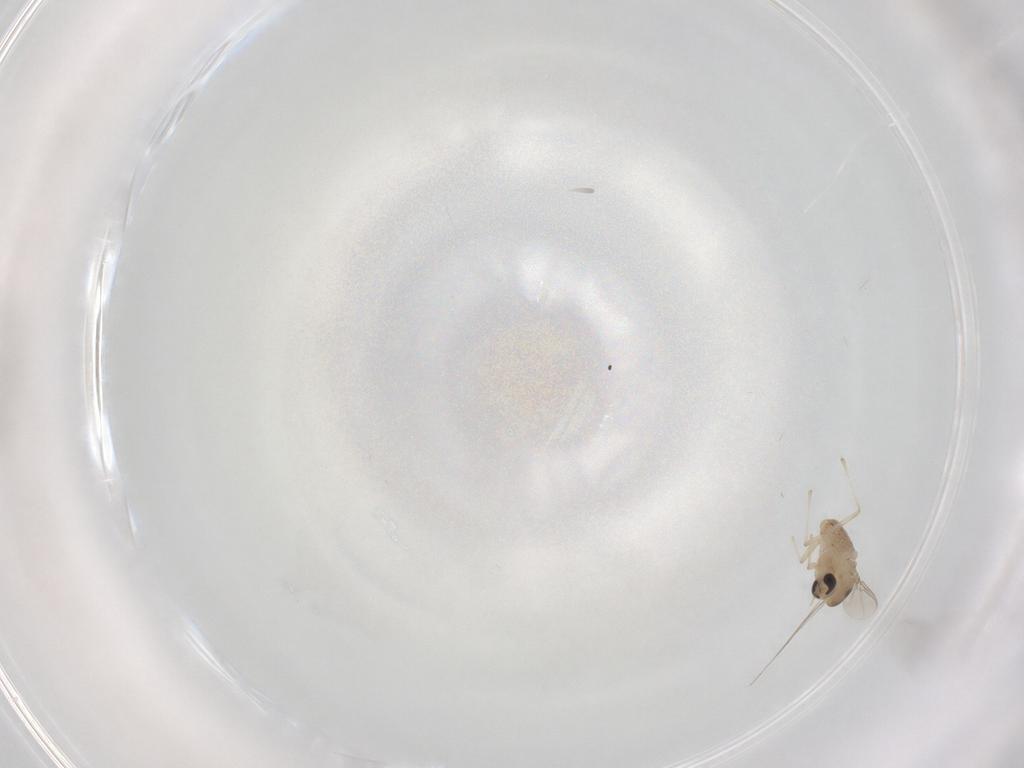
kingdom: Animalia
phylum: Arthropoda
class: Insecta
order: Diptera
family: Chironomidae
